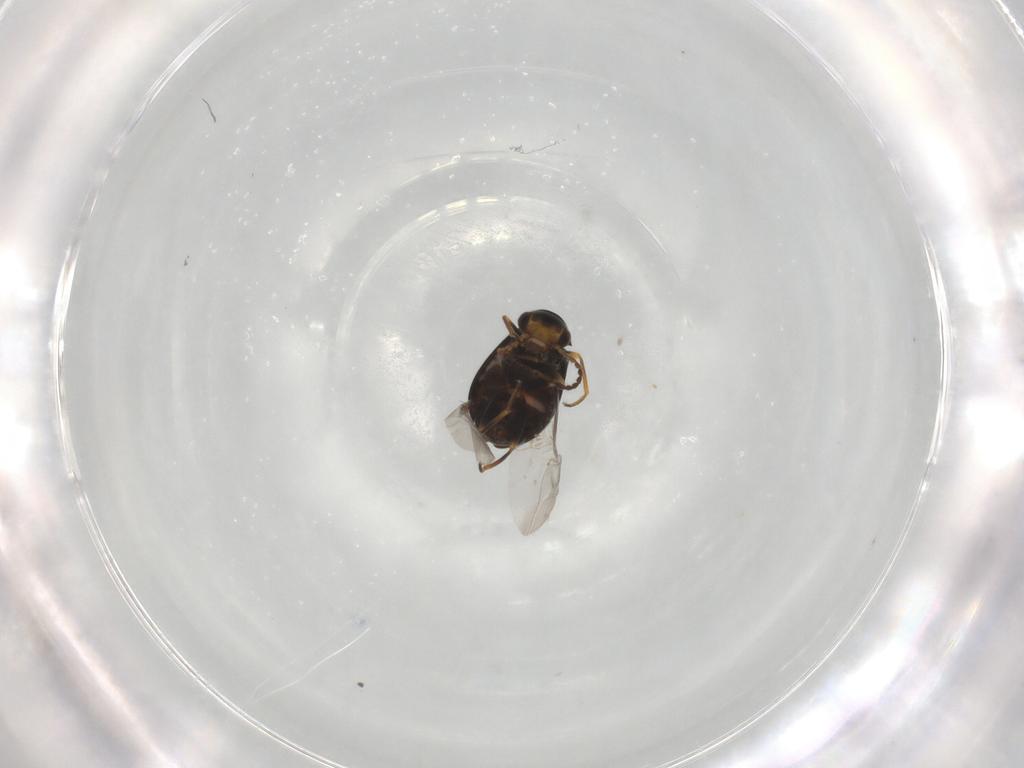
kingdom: Animalia
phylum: Arthropoda
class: Insecta
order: Coleoptera
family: Melyridae
